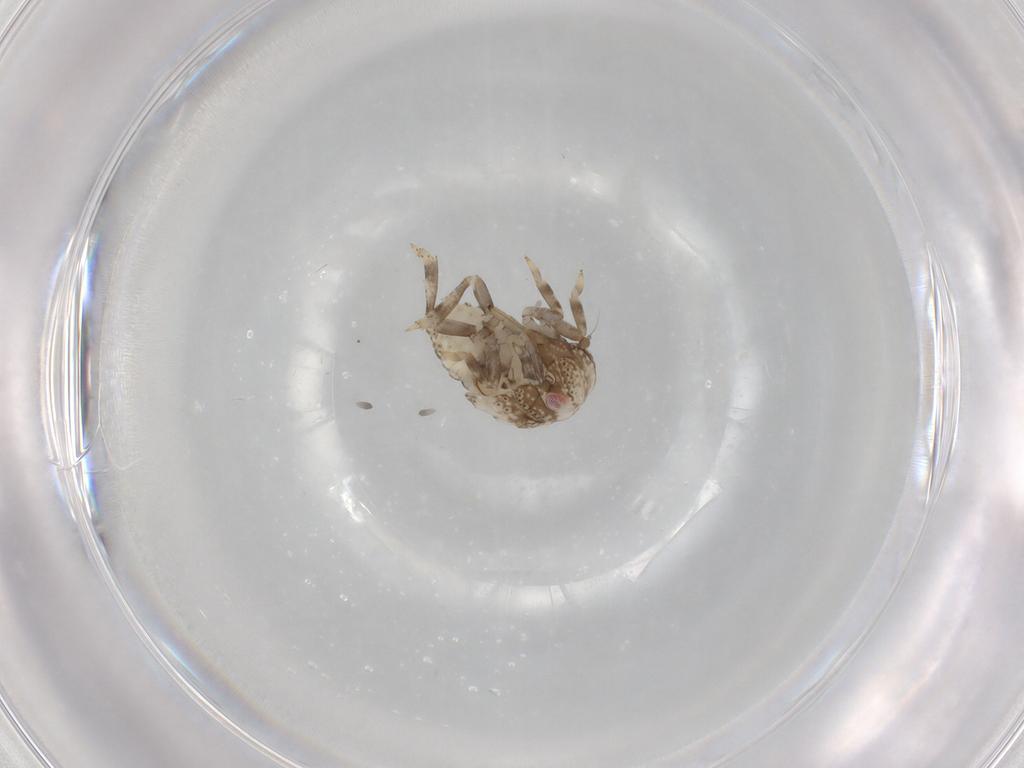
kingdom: Animalia
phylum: Arthropoda
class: Insecta
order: Hemiptera
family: Acanaloniidae
